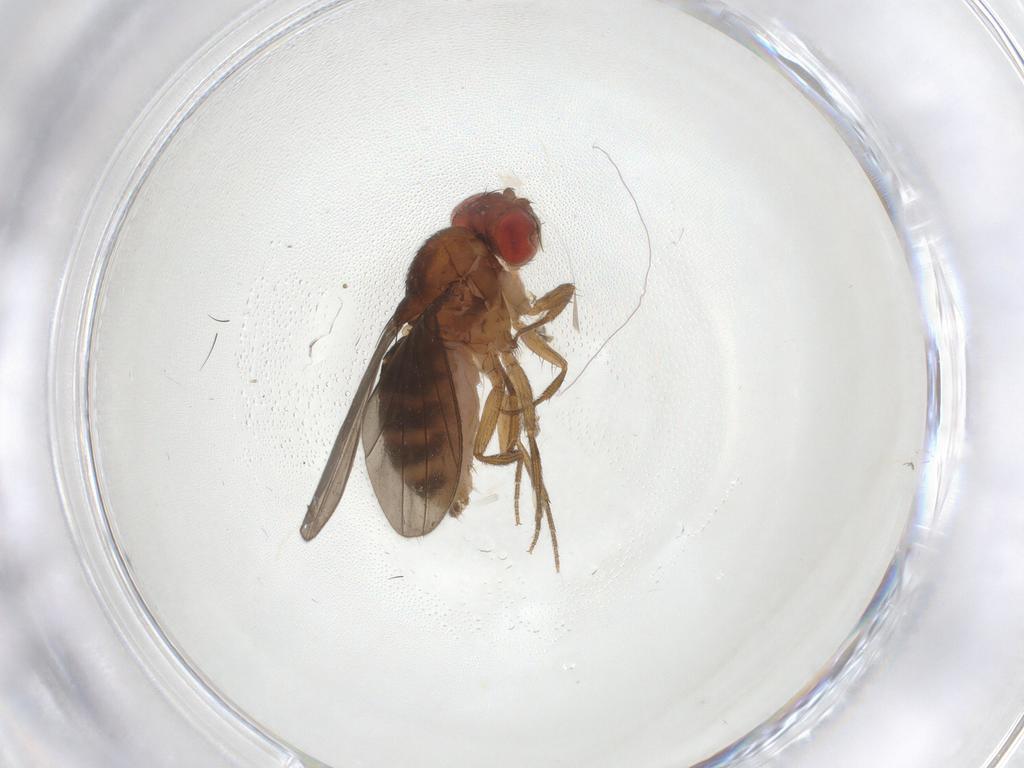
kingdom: Animalia
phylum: Arthropoda
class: Insecta
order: Diptera
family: Drosophilidae
